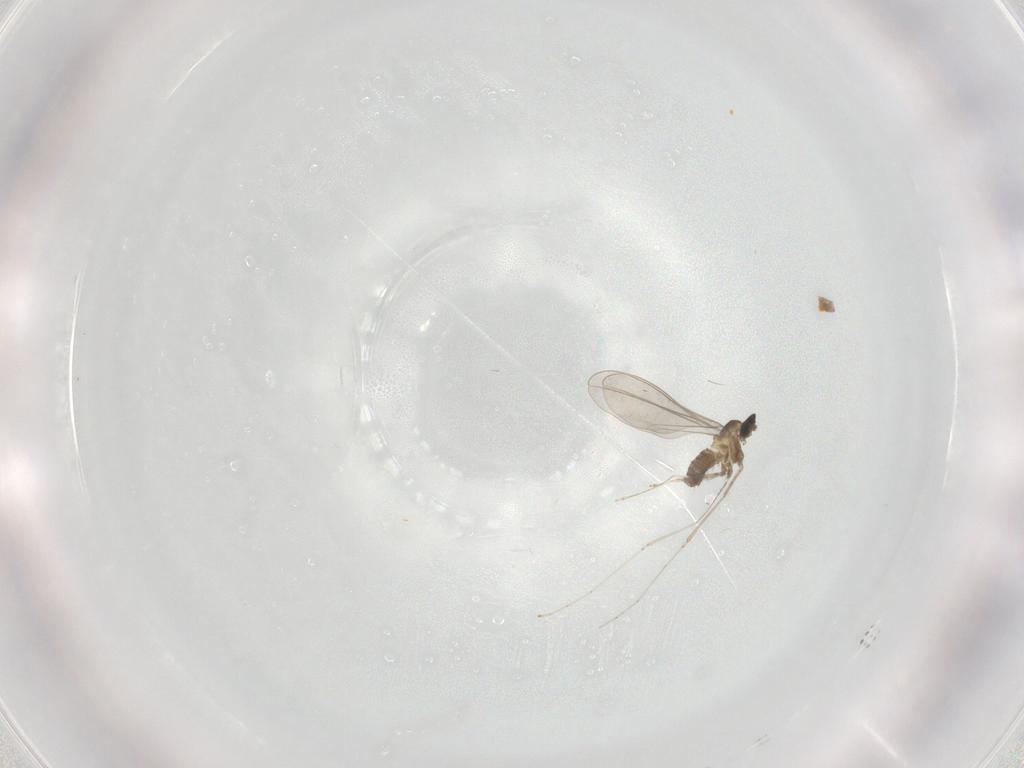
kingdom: Animalia
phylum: Arthropoda
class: Insecta
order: Diptera
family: Cecidomyiidae
